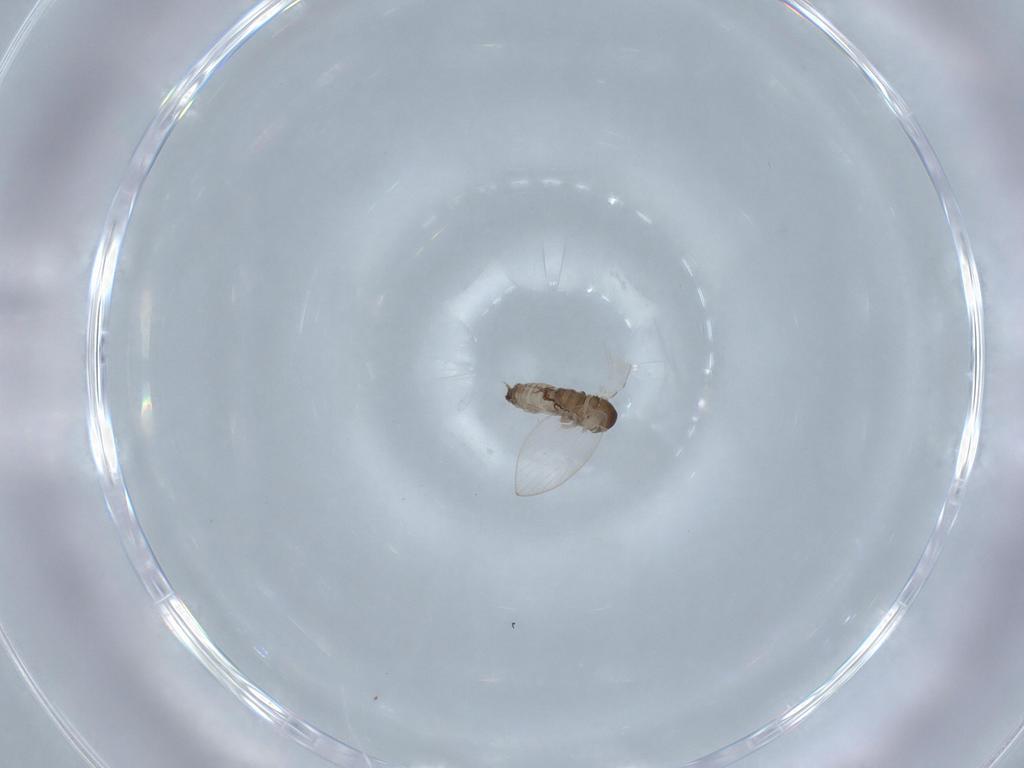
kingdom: Animalia
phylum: Arthropoda
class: Insecta
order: Diptera
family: Psychodidae
